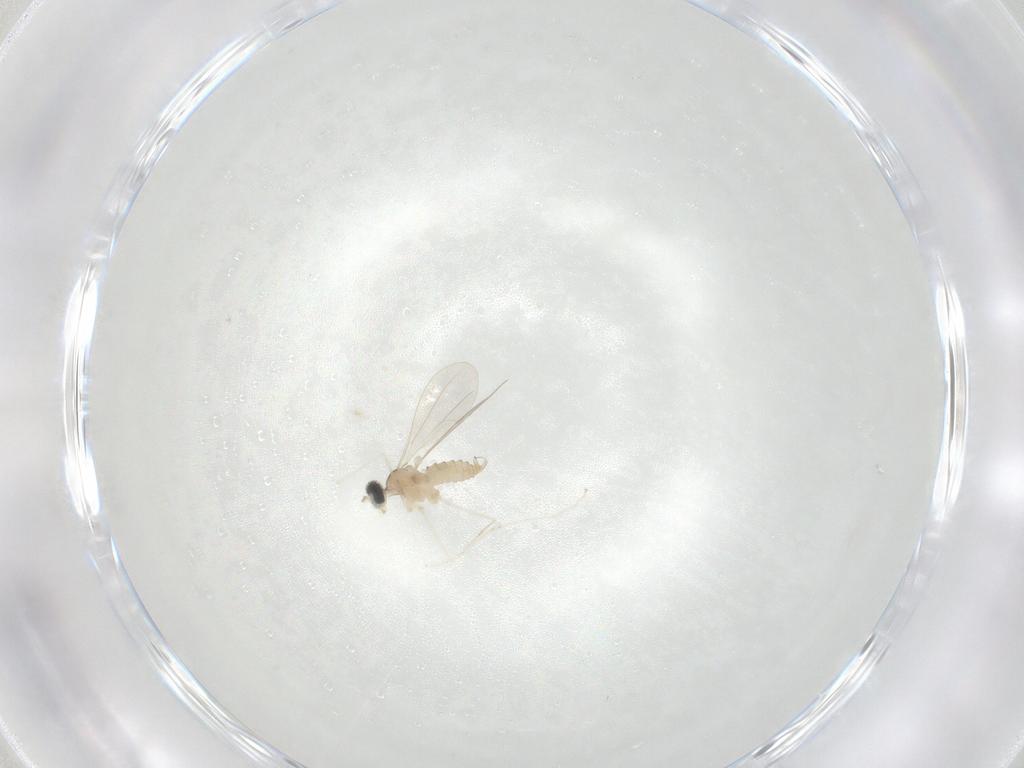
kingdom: Animalia
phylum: Arthropoda
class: Insecta
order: Diptera
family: Cecidomyiidae
